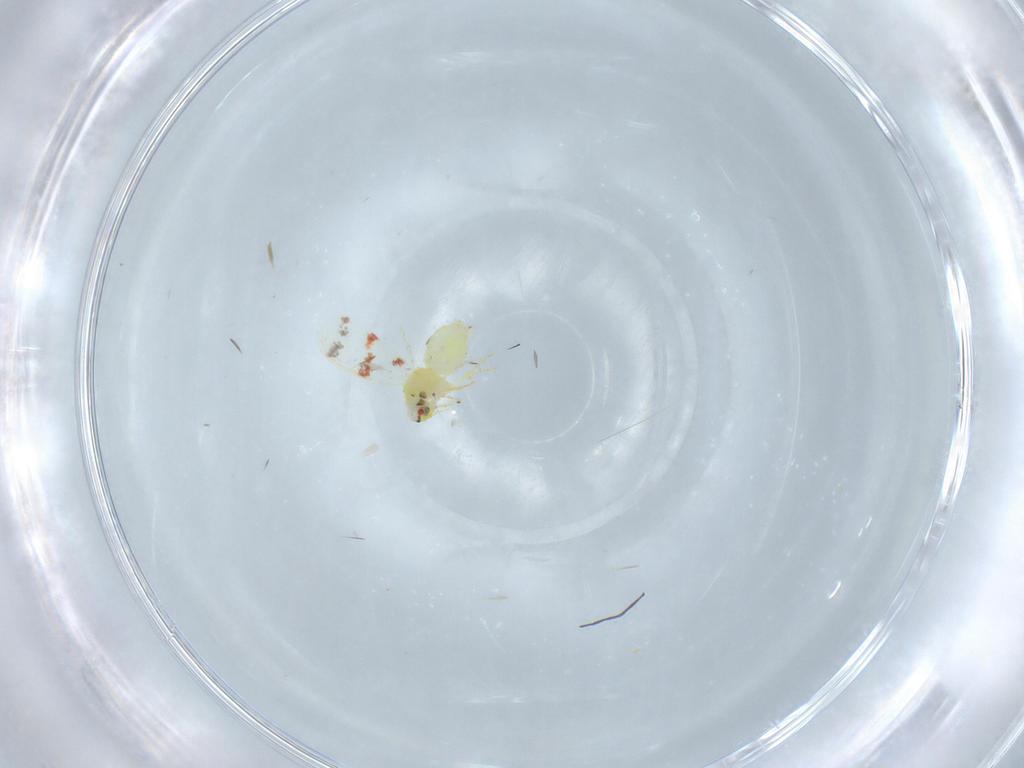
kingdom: Animalia
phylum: Arthropoda
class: Insecta
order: Hemiptera
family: Aleyrodidae
